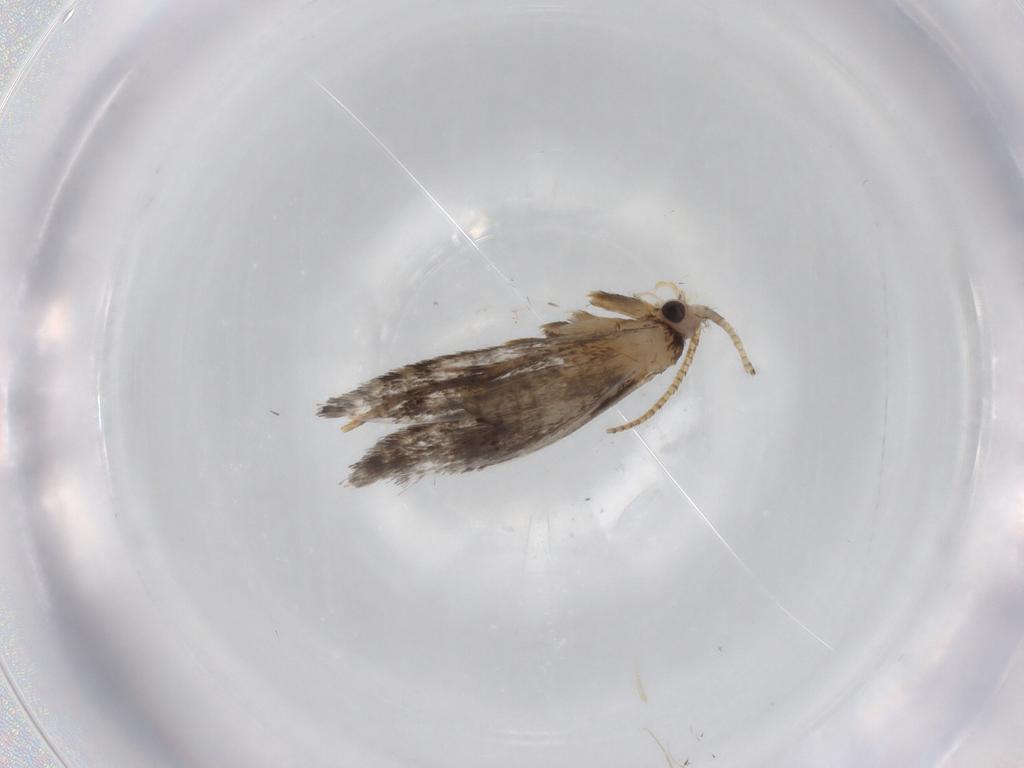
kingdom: Animalia
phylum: Arthropoda
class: Insecta
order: Lepidoptera
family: Tineidae
